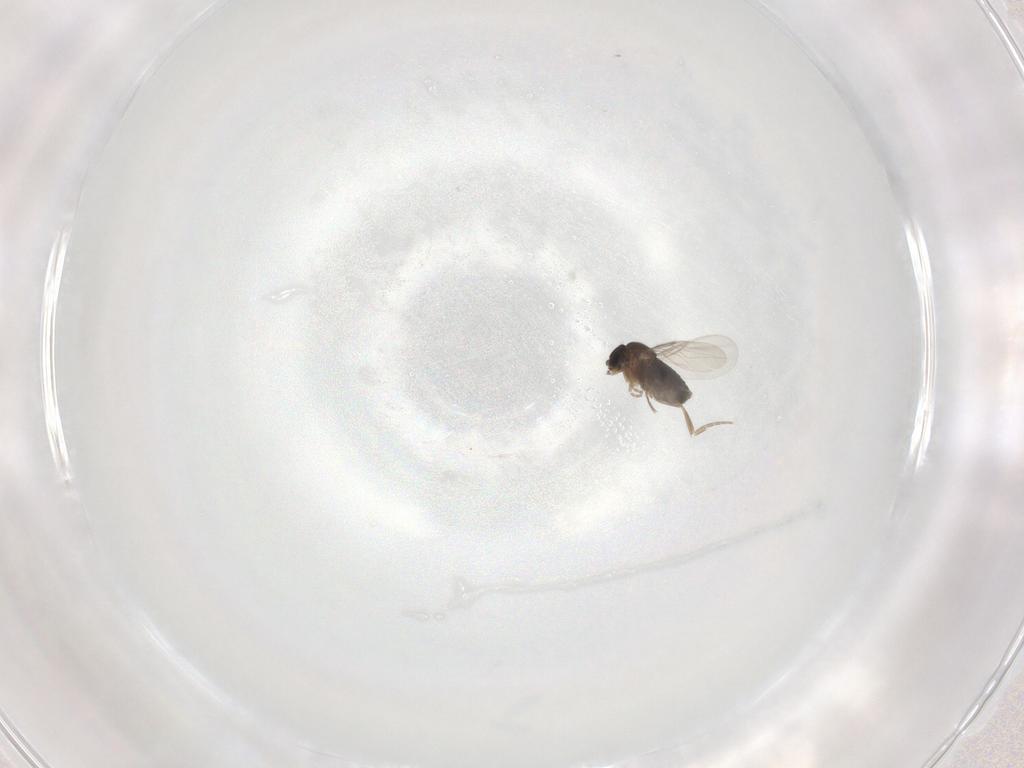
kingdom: Animalia
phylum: Arthropoda
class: Insecta
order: Diptera
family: Phoridae
